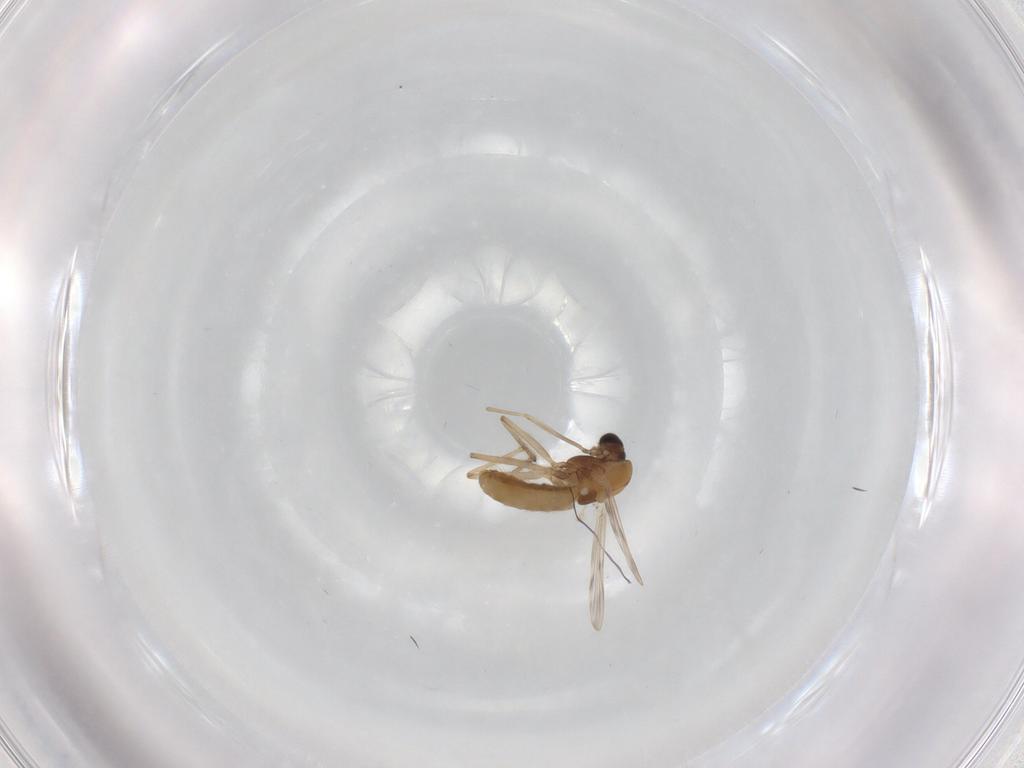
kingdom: Animalia
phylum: Arthropoda
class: Insecta
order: Diptera
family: Chironomidae
